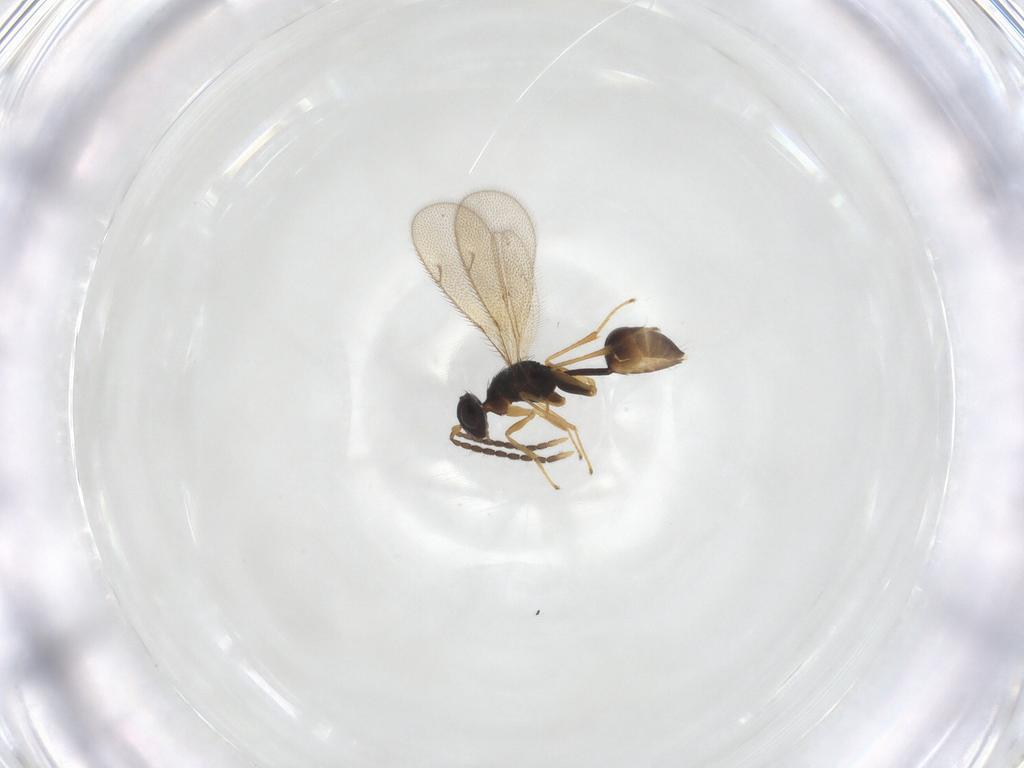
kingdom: Animalia
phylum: Arthropoda
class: Insecta
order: Hymenoptera
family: Diparidae
